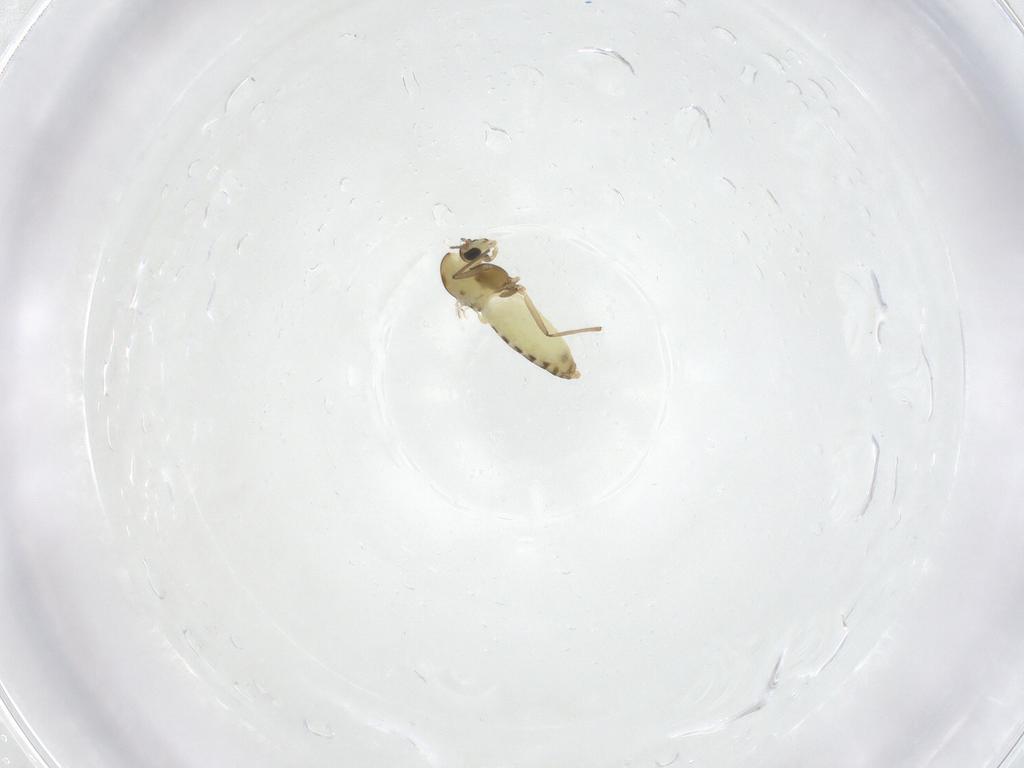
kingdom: Animalia
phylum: Arthropoda
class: Insecta
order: Diptera
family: Chironomidae
